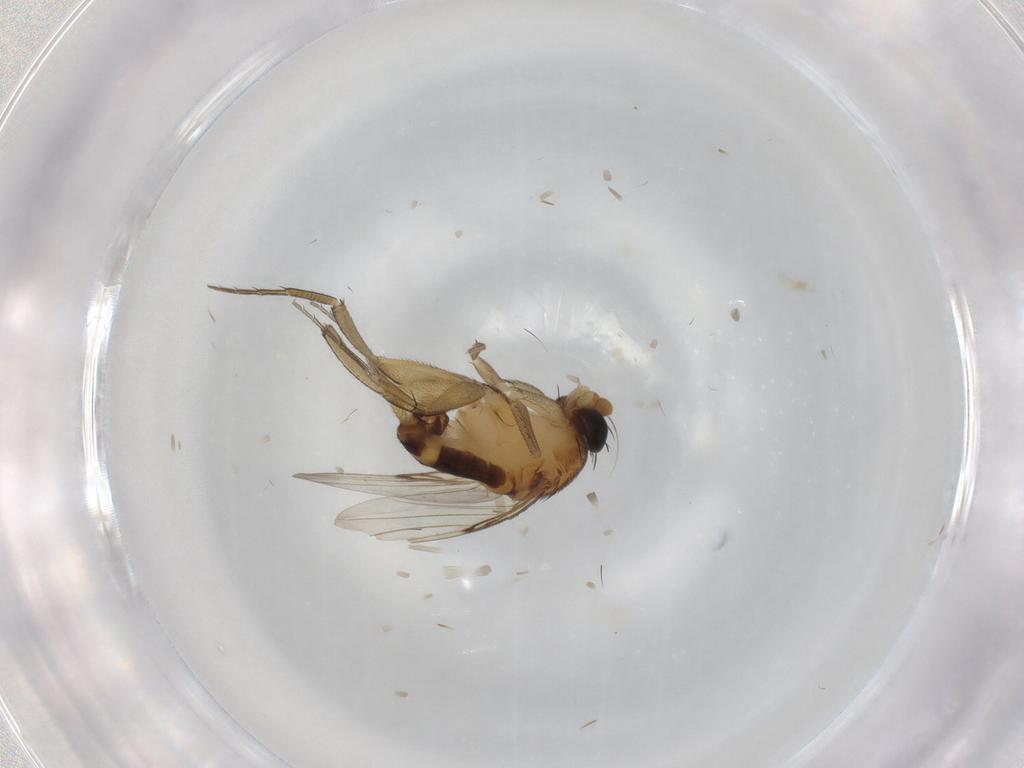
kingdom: Animalia
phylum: Arthropoda
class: Insecta
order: Diptera
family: Phoridae
